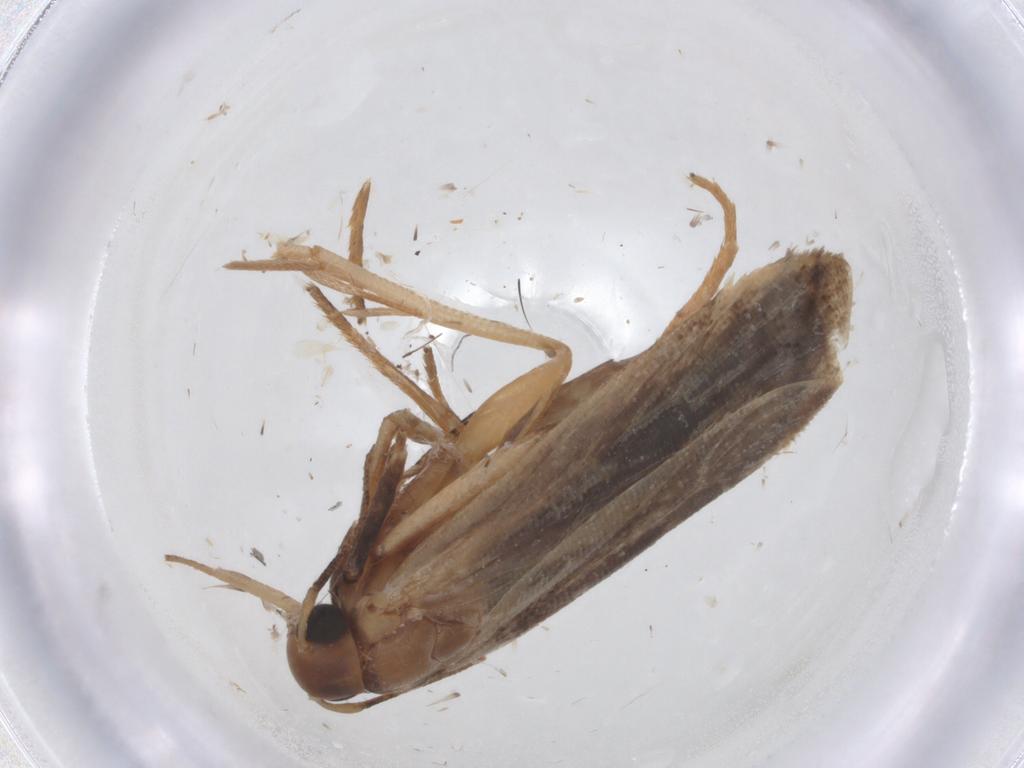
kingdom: Animalia
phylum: Arthropoda
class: Insecta
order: Lepidoptera
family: Gelechiidae
